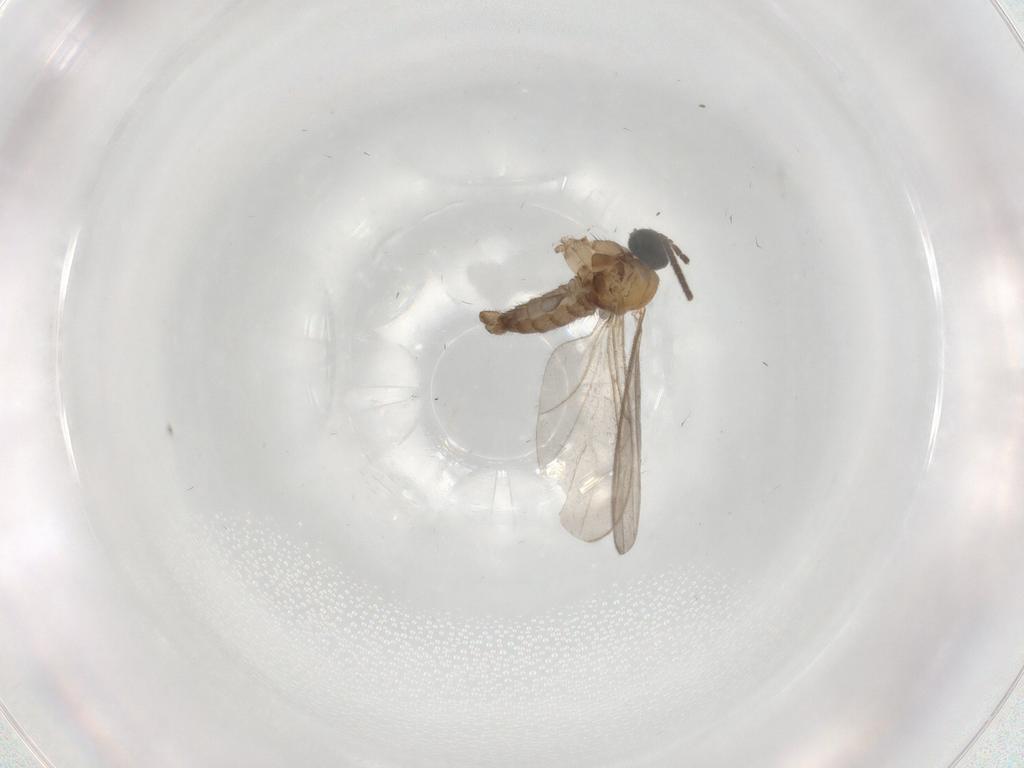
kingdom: Animalia
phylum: Arthropoda
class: Insecta
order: Diptera
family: Sciaridae
